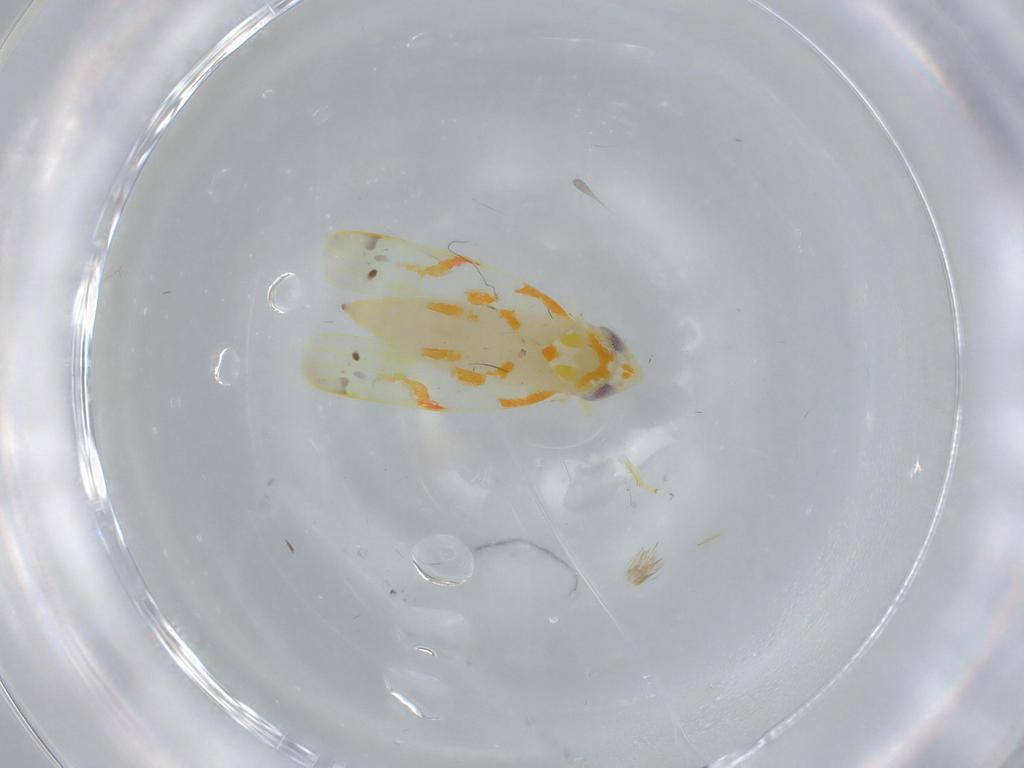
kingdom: Animalia
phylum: Arthropoda
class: Insecta
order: Hemiptera
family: Cicadellidae
